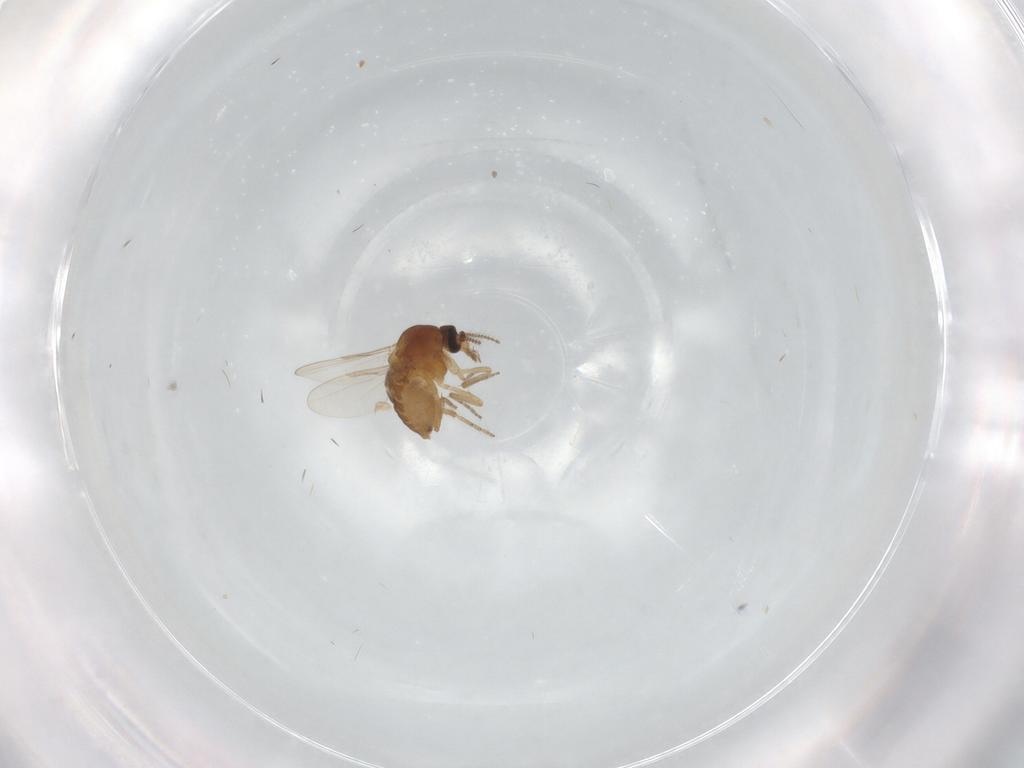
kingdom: Animalia
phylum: Arthropoda
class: Insecta
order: Diptera
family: Ceratopogonidae
